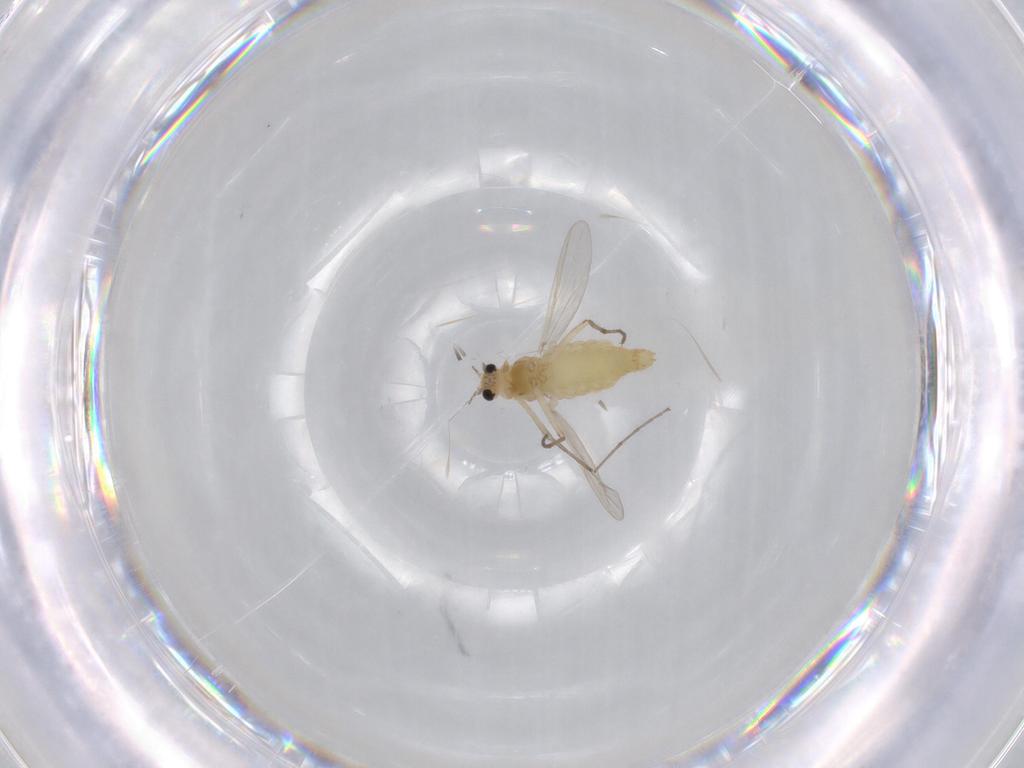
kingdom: Animalia
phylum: Arthropoda
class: Insecta
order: Diptera
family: Chironomidae
